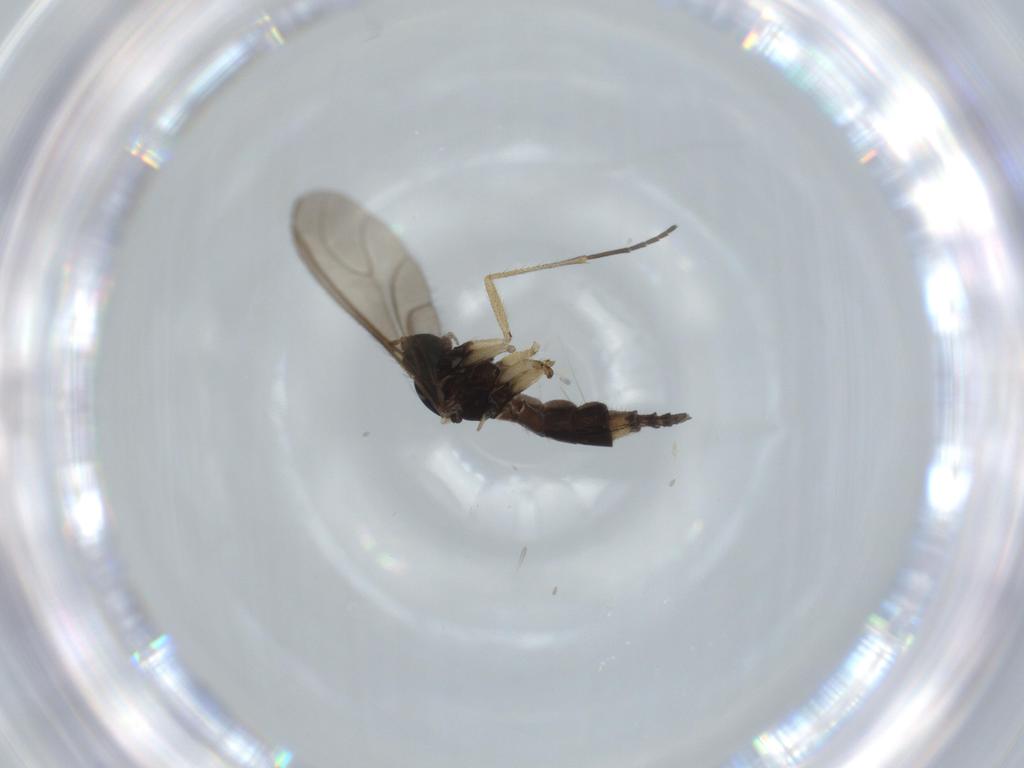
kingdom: Animalia
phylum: Arthropoda
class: Insecta
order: Diptera
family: Sciaridae
